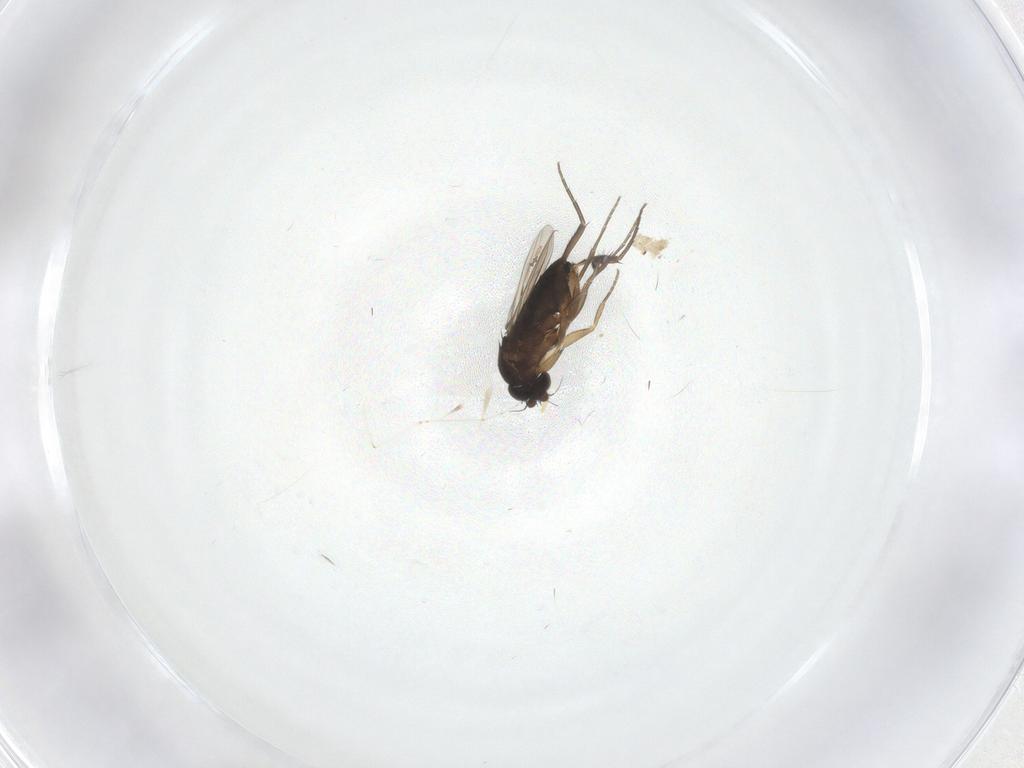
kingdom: Animalia
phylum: Arthropoda
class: Insecta
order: Diptera
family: Phoridae
